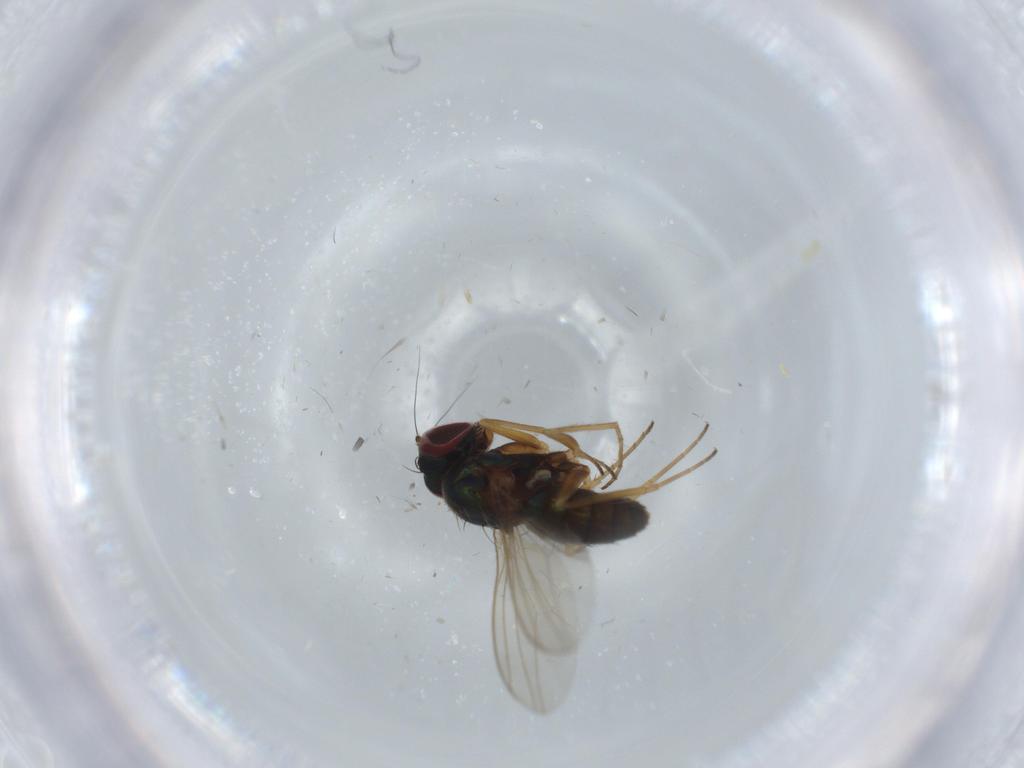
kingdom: Animalia
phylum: Arthropoda
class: Insecta
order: Diptera
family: Dolichopodidae
